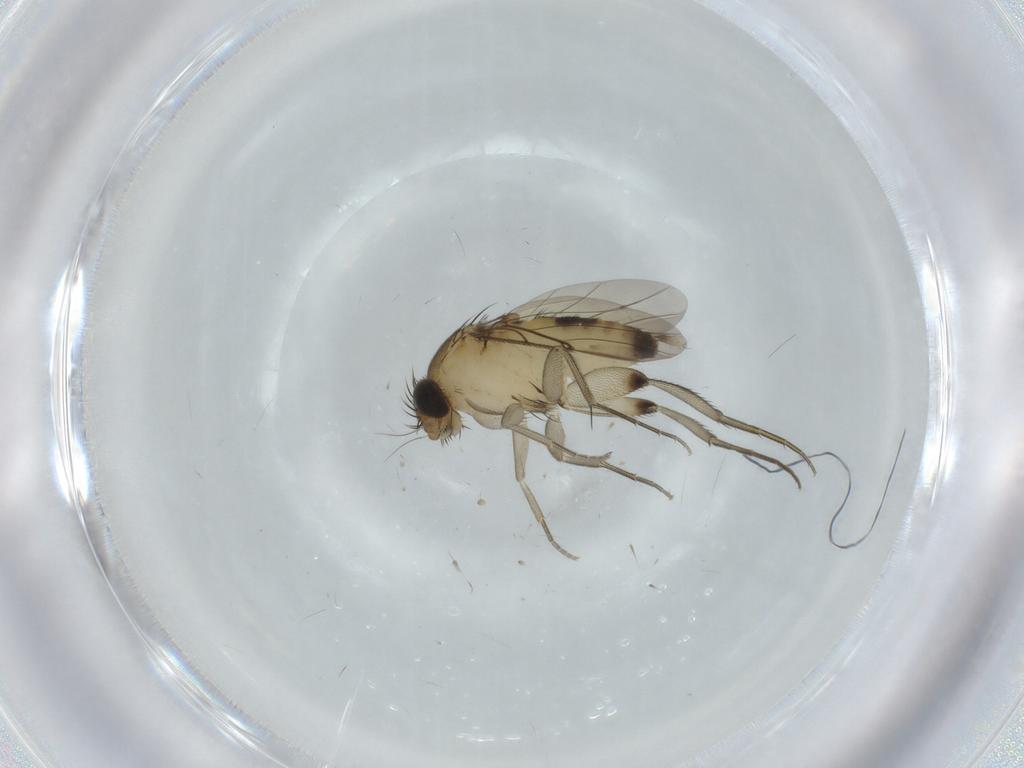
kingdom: Animalia
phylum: Arthropoda
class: Insecta
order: Diptera
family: Phoridae
